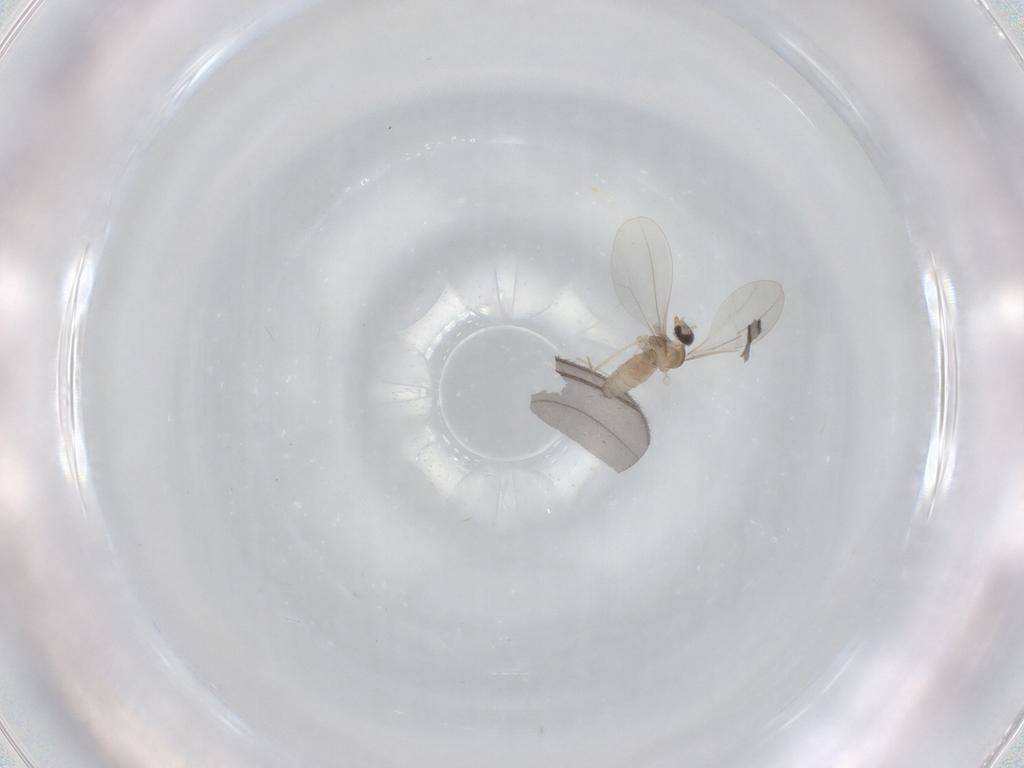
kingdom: Animalia
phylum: Arthropoda
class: Insecta
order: Diptera
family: Cecidomyiidae
